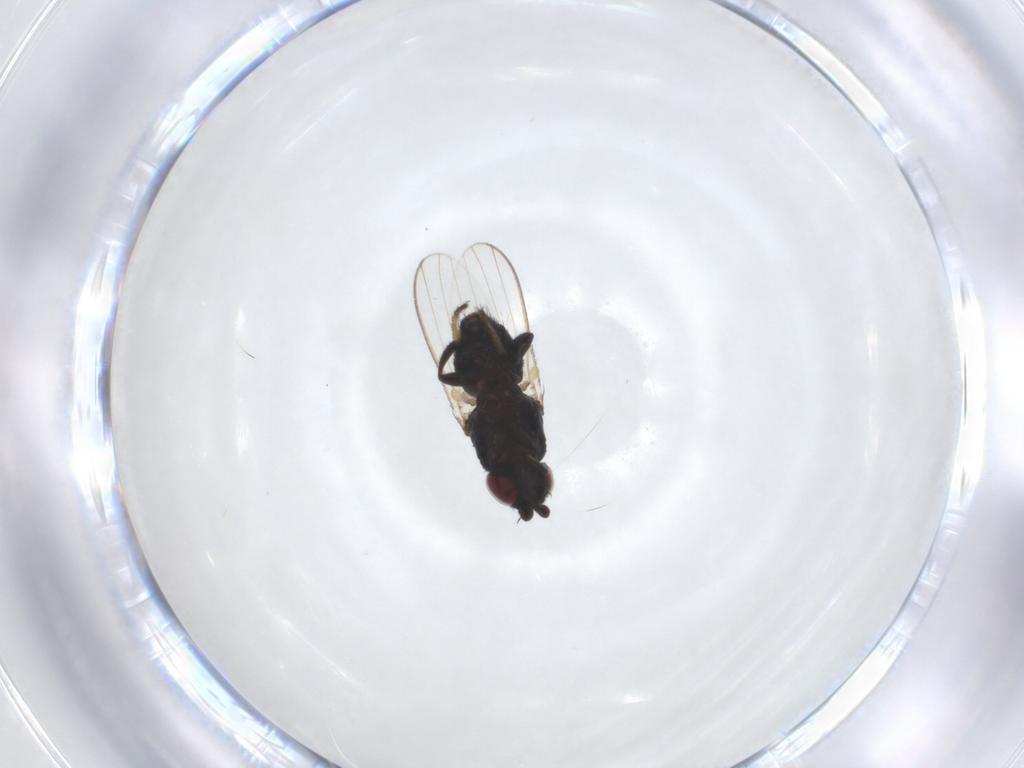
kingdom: Animalia
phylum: Arthropoda
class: Insecta
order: Diptera
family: Milichiidae
